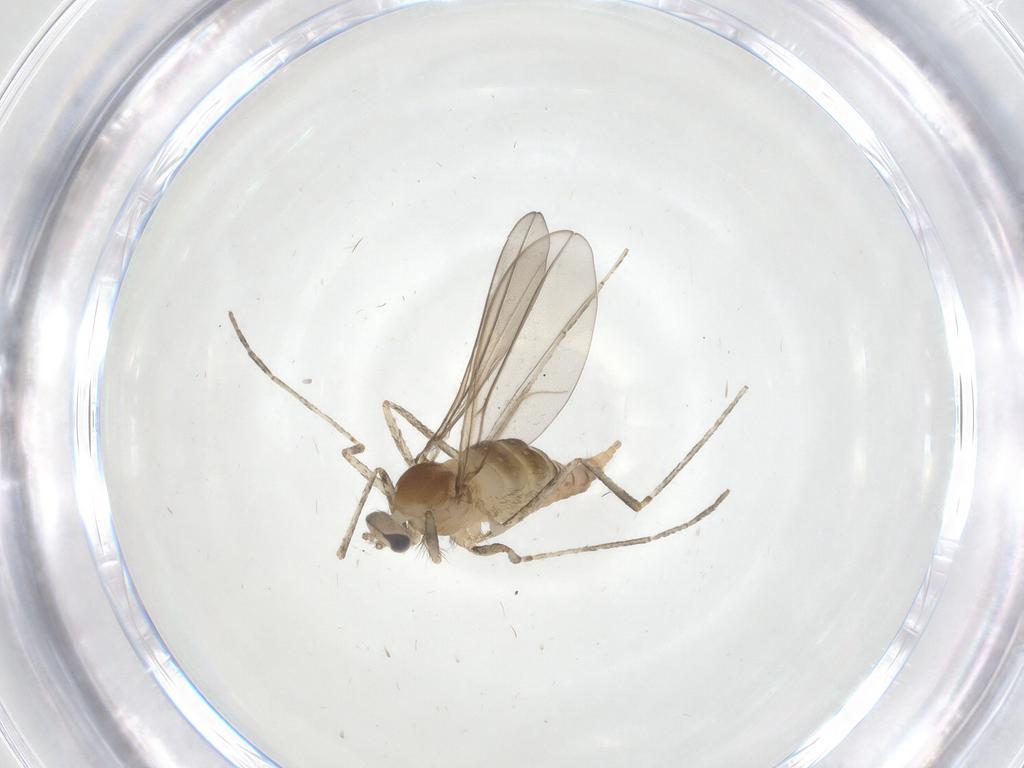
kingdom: Animalia
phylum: Arthropoda
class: Insecta
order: Diptera
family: Cecidomyiidae
